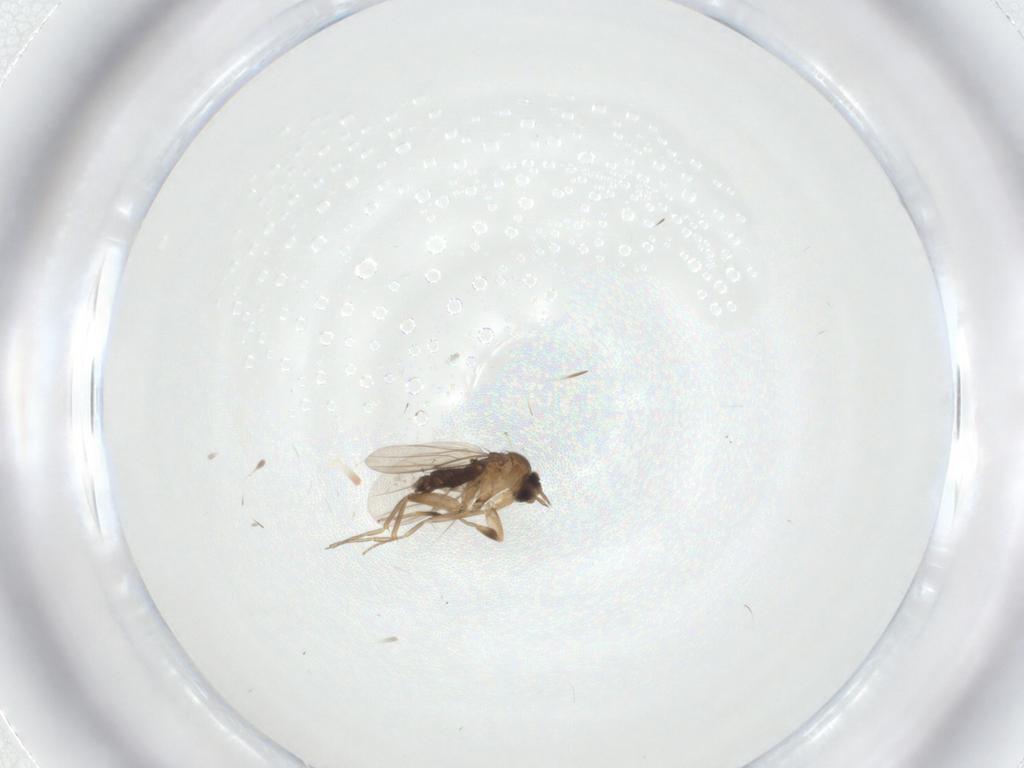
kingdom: Animalia
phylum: Arthropoda
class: Insecta
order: Diptera
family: Phoridae
